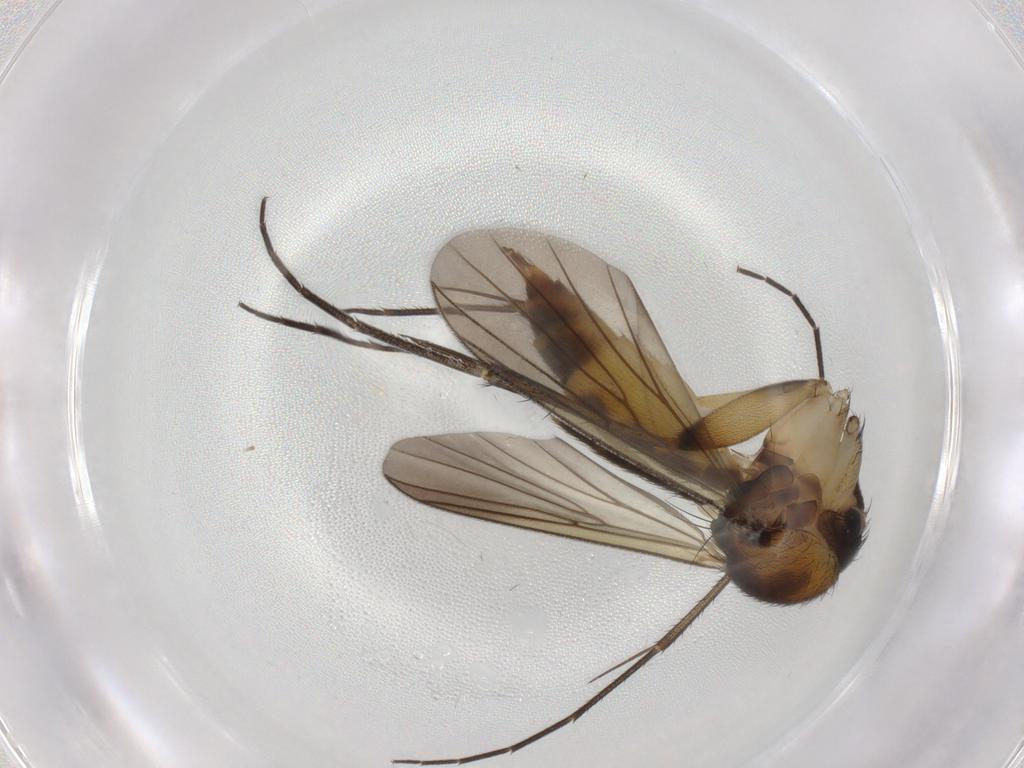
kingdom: Animalia
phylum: Arthropoda
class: Insecta
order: Diptera
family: Mycetophilidae
